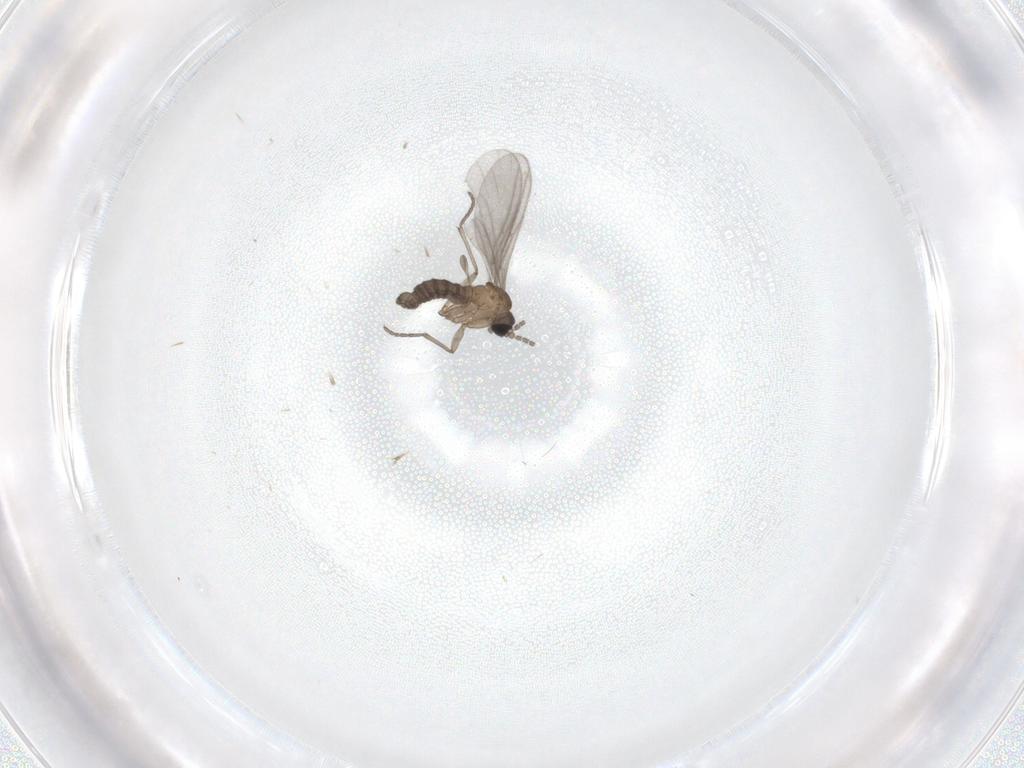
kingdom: Animalia
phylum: Arthropoda
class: Insecta
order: Diptera
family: Sciaridae
